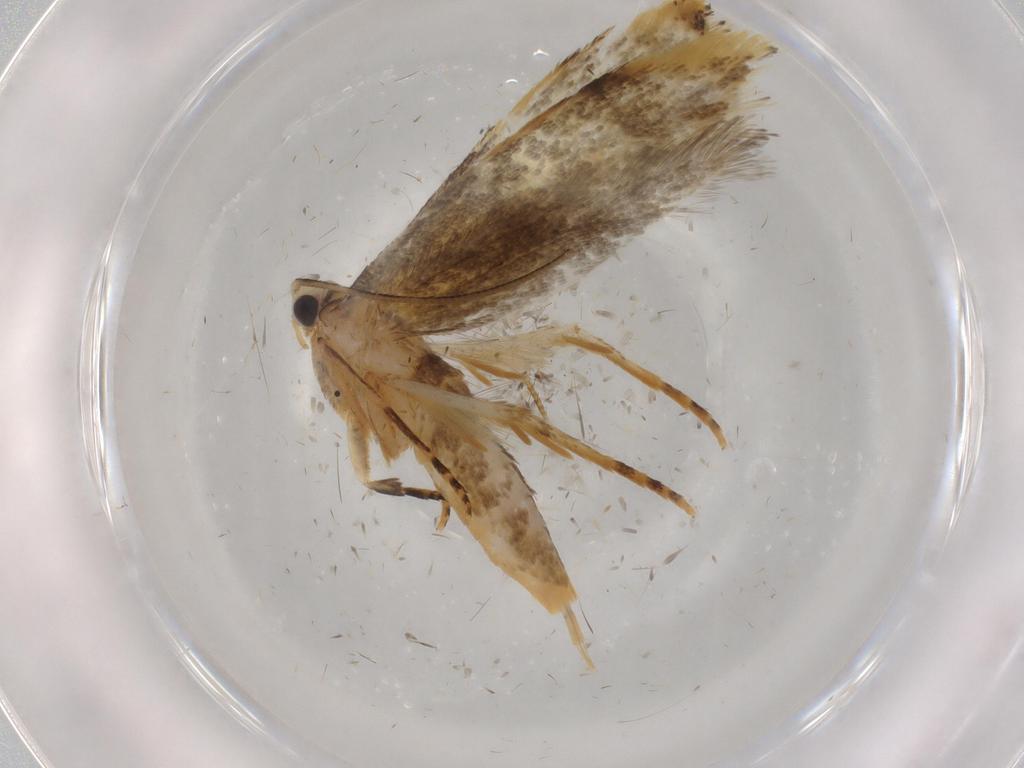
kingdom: Animalia
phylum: Arthropoda
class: Insecta
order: Lepidoptera
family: Tineidae
